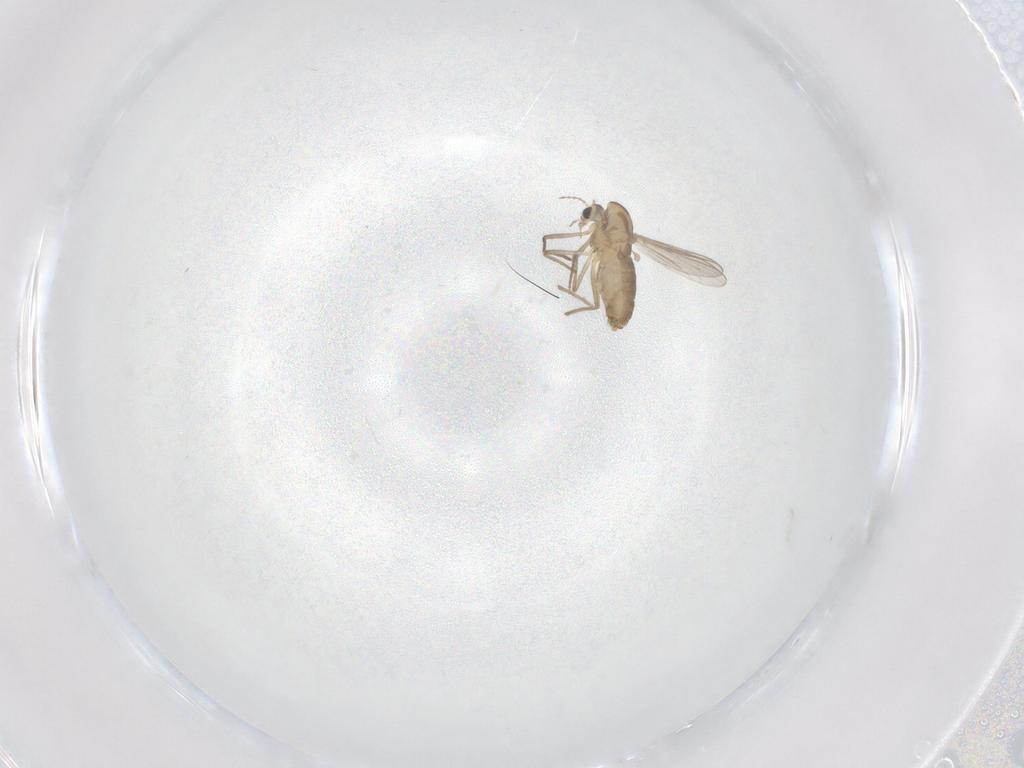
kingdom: Animalia
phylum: Arthropoda
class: Insecta
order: Diptera
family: Chironomidae
